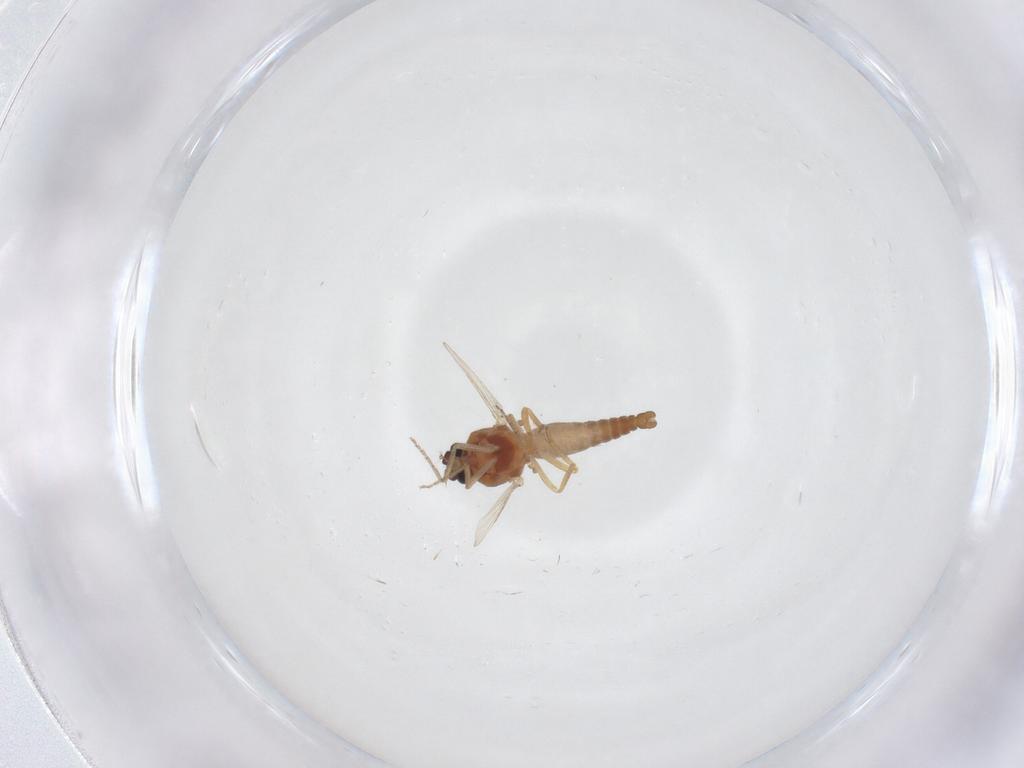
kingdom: Animalia
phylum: Arthropoda
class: Insecta
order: Diptera
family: Ceratopogonidae
